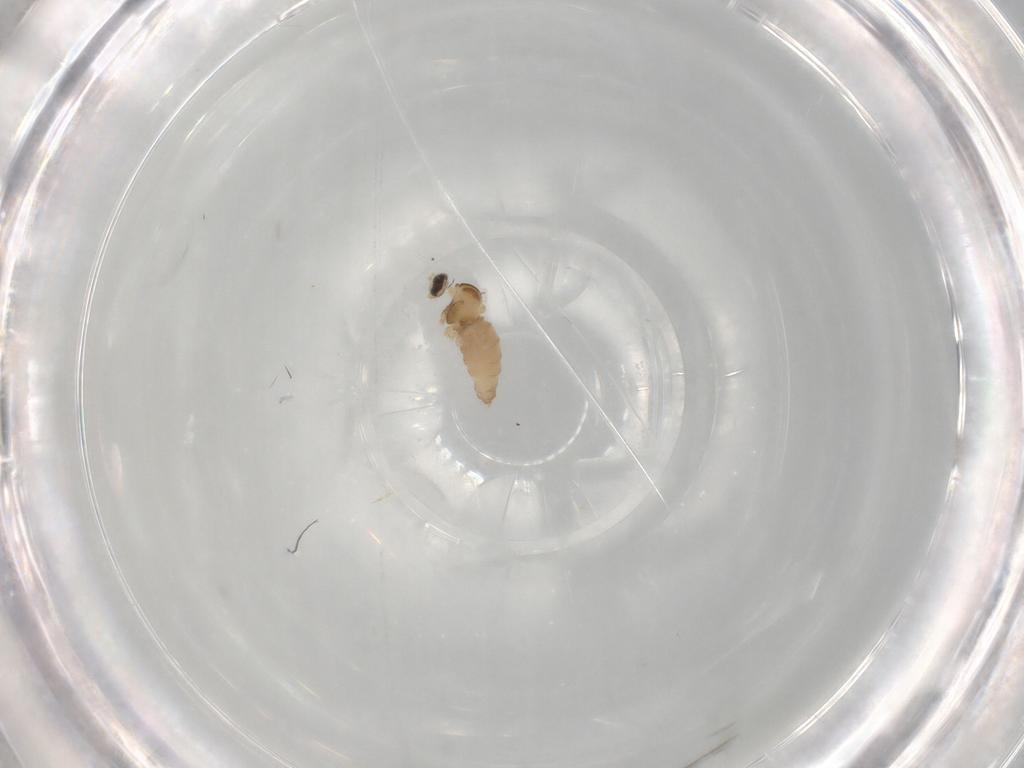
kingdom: Animalia
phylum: Arthropoda
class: Insecta
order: Diptera
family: Cecidomyiidae
